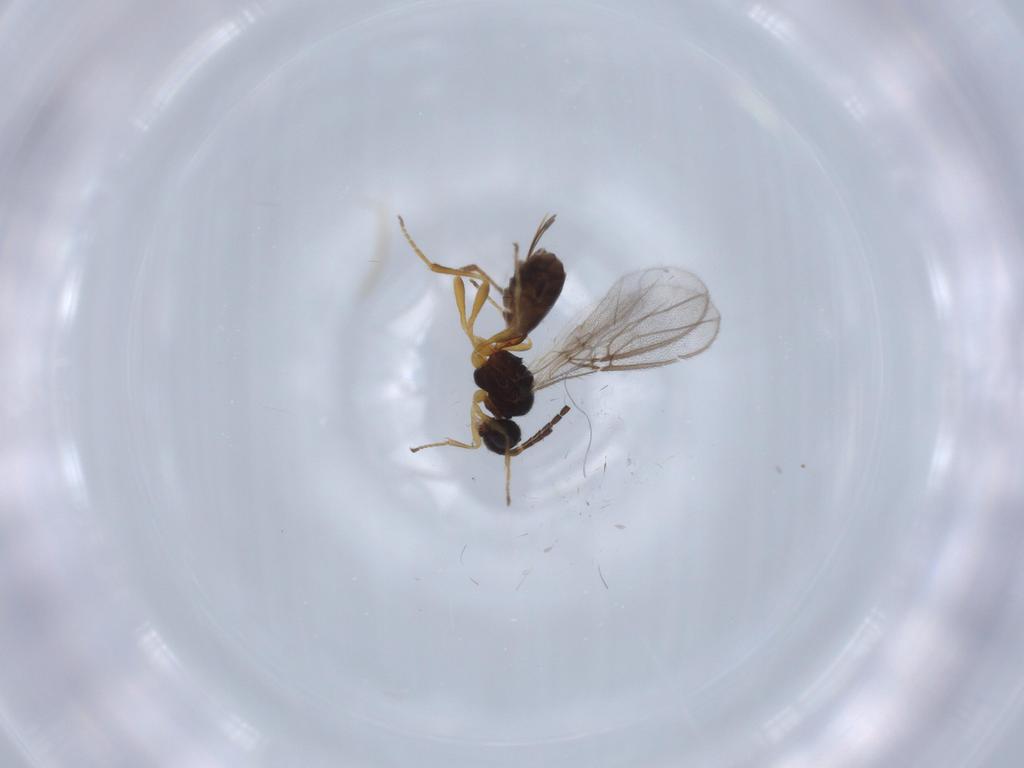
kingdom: Animalia
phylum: Arthropoda
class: Insecta
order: Hymenoptera
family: Braconidae
